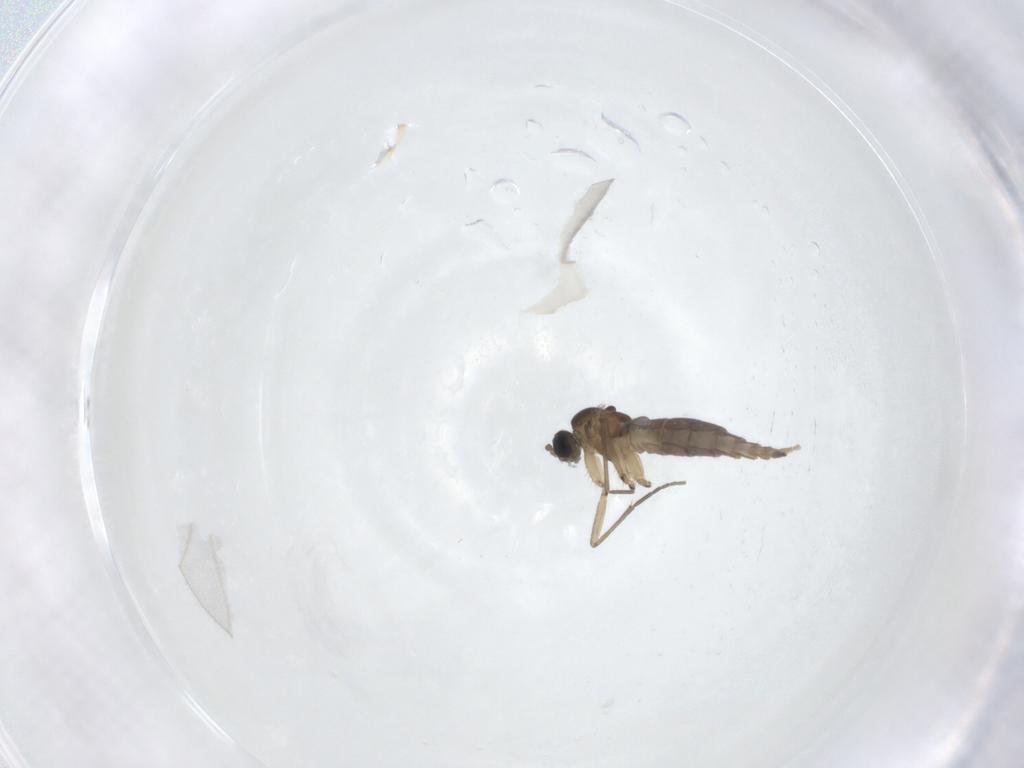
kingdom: Animalia
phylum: Arthropoda
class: Insecta
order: Diptera
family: Sciaridae
